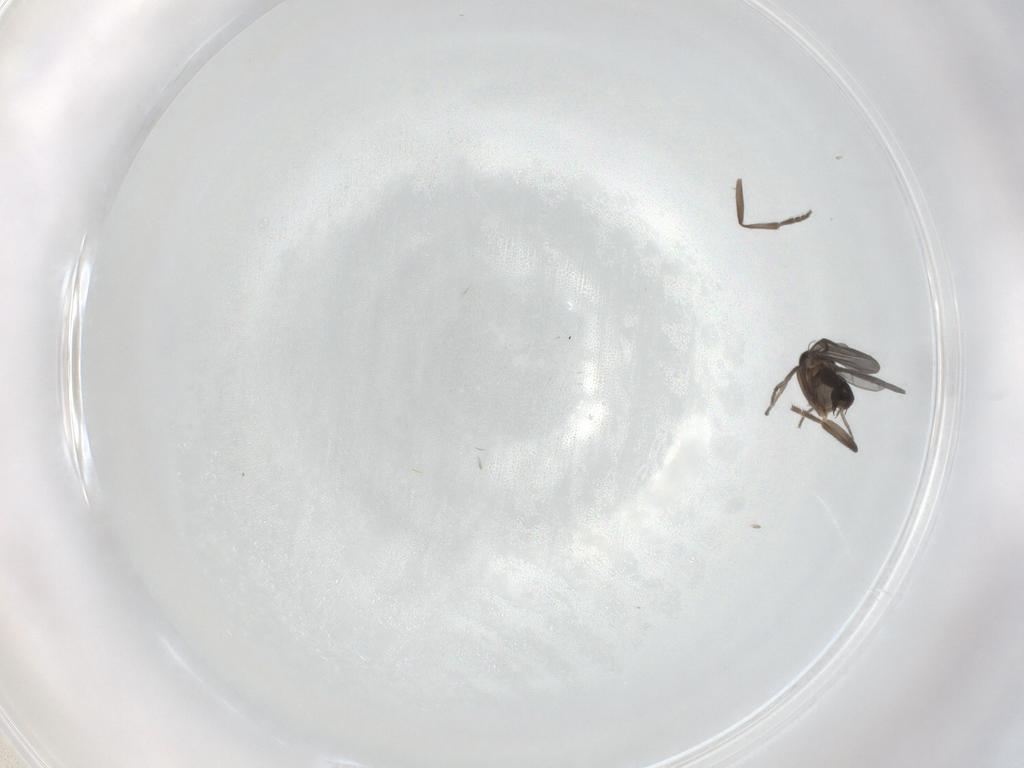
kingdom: Animalia
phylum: Arthropoda
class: Insecta
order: Diptera
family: Phoridae
